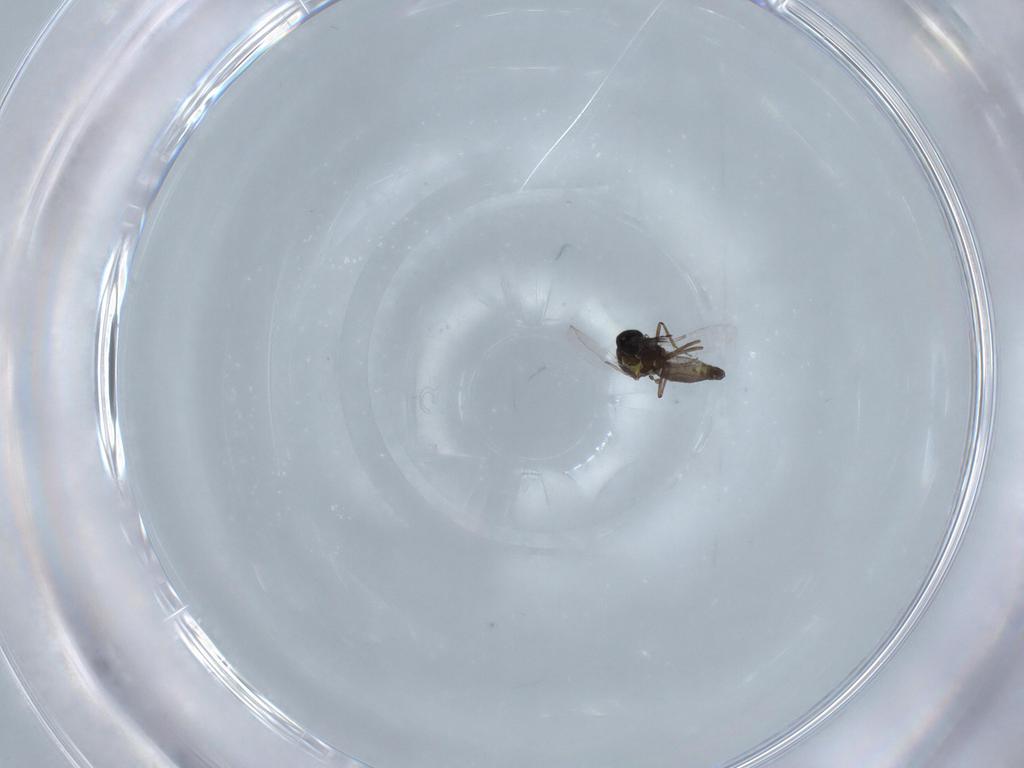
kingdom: Animalia
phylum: Arthropoda
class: Insecta
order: Diptera
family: Ceratopogonidae
